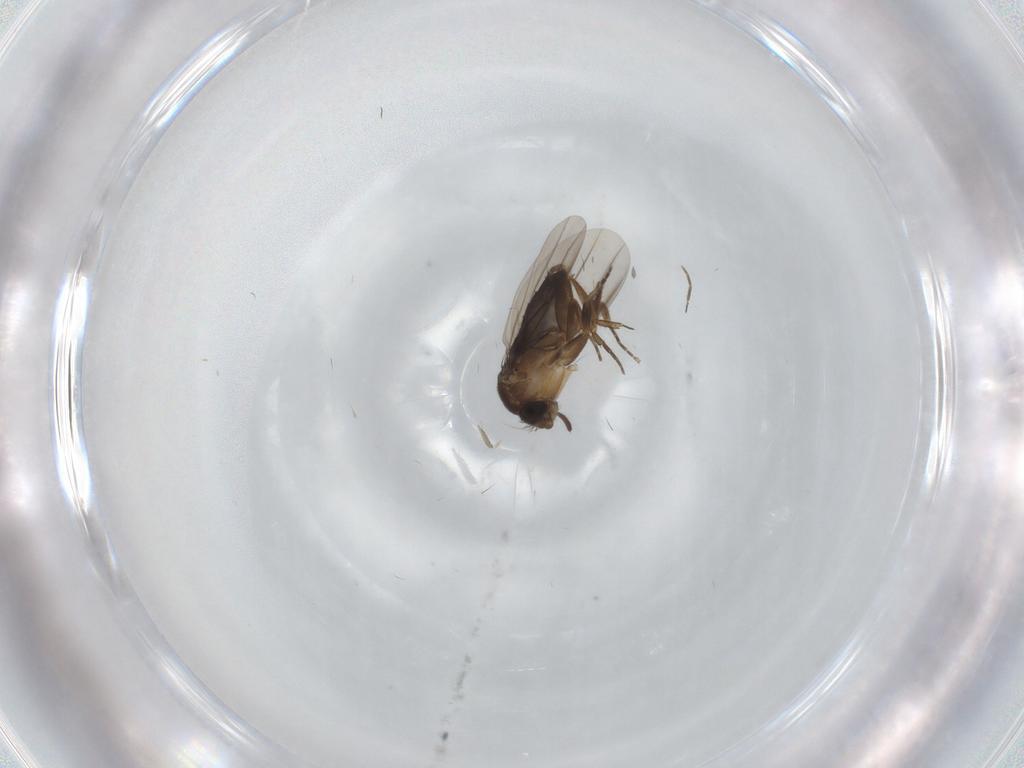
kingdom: Animalia
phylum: Arthropoda
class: Insecta
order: Diptera
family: Phoridae
